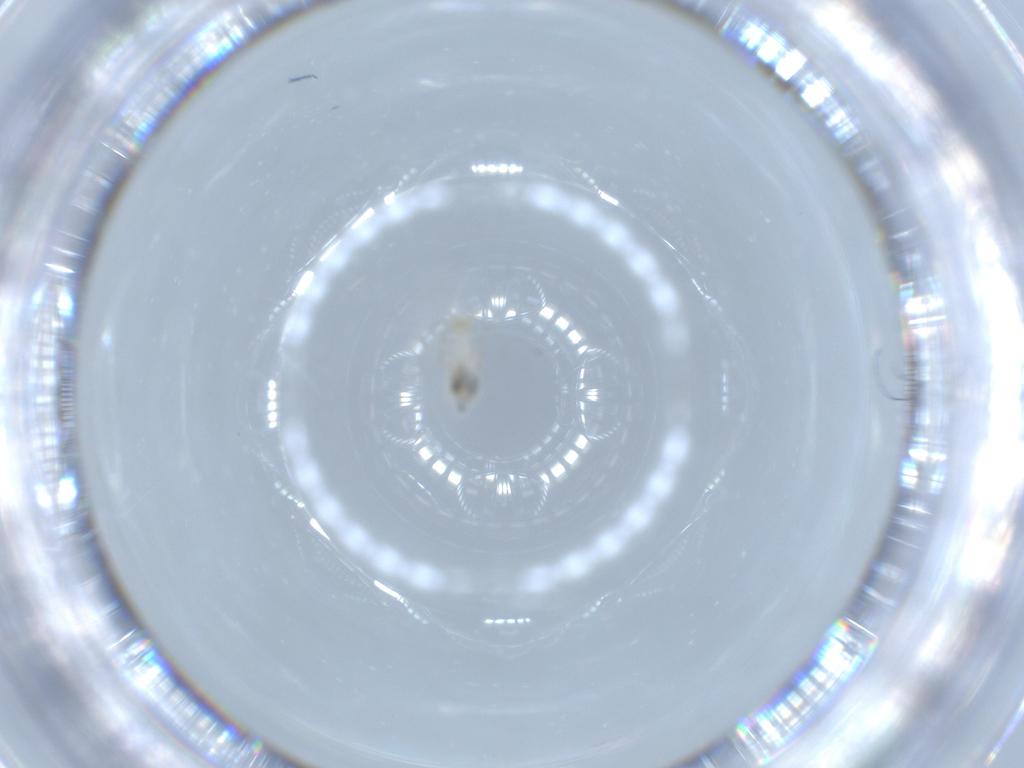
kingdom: Animalia
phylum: Arthropoda
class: Insecta
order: Psocodea
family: Caeciliusidae
